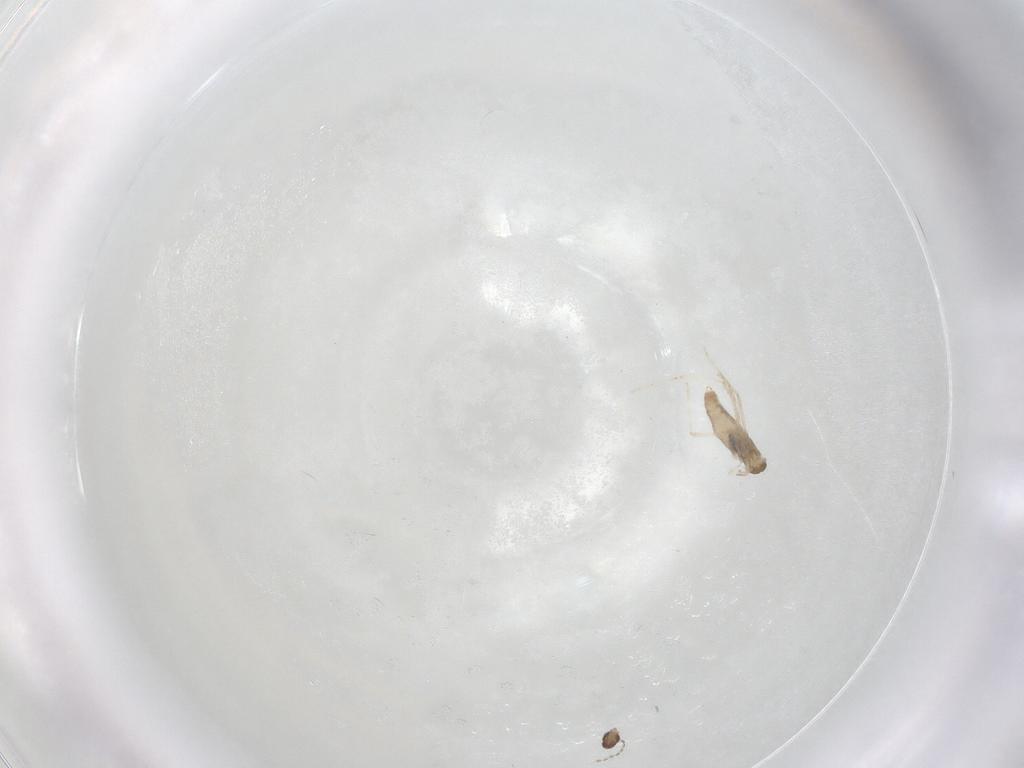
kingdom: Animalia
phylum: Arthropoda
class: Insecta
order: Diptera
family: Cecidomyiidae
